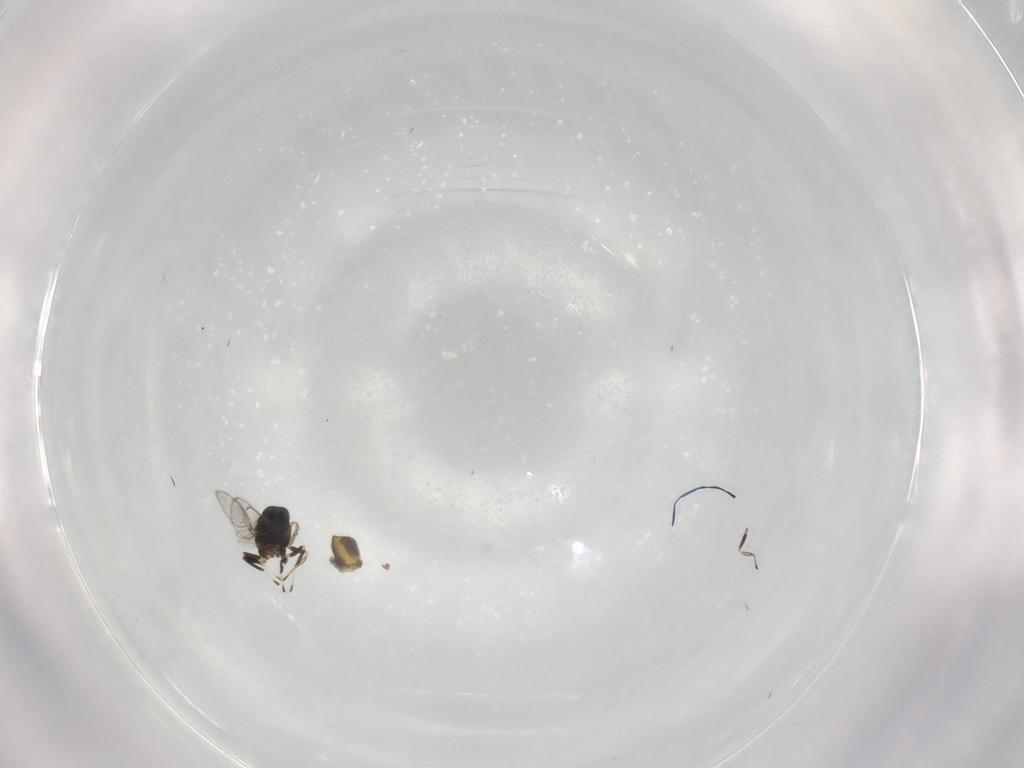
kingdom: Animalia
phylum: Arthropoda
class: Insecta
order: Hymenoptera
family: Eulophidae
